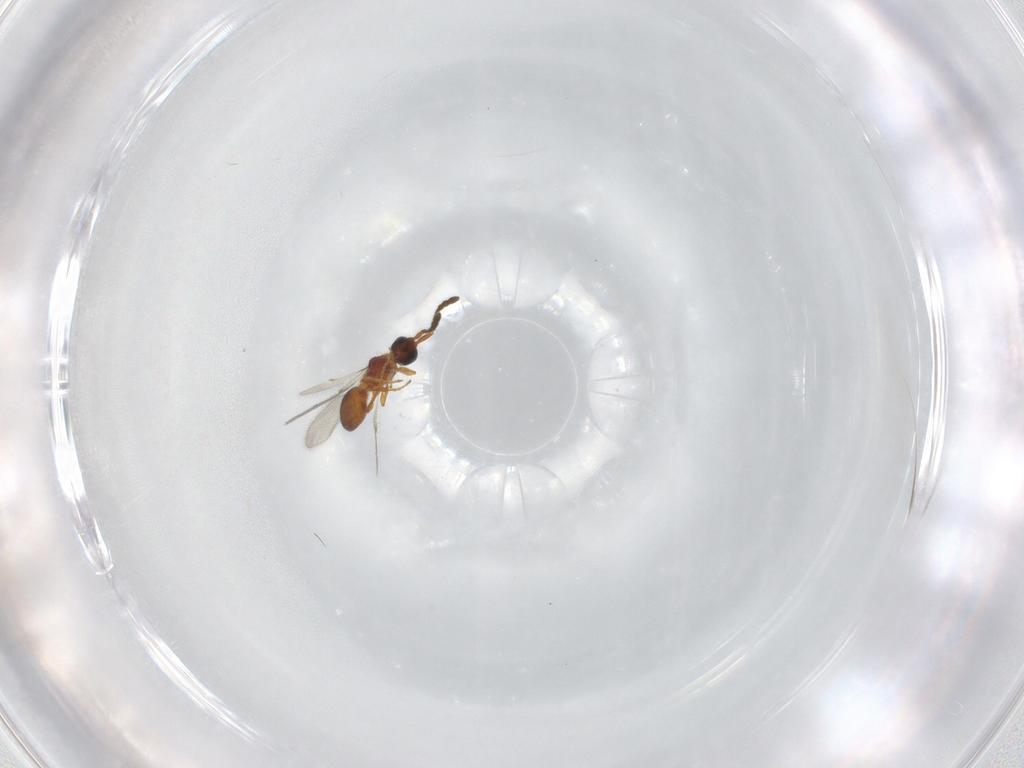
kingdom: Animalia
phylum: Arthropoda
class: Insecta
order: Hymenoptera
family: Diapriidae
